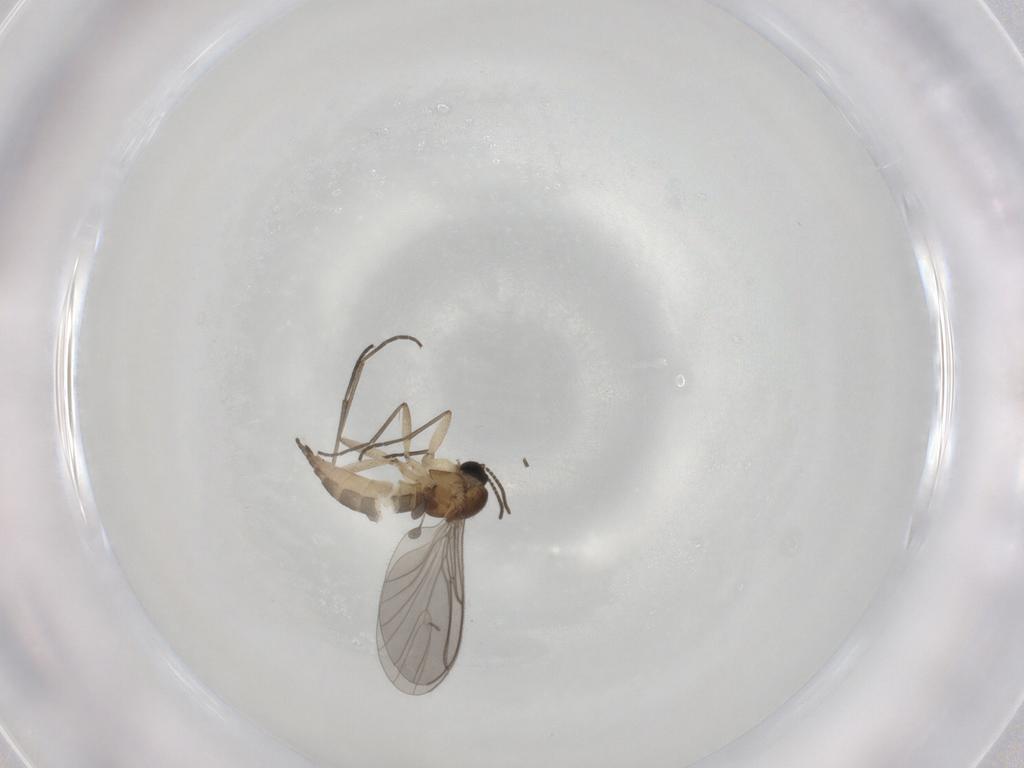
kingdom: Animalia
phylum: Arthropoda
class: Insecta
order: Diptera
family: Sciaridae
